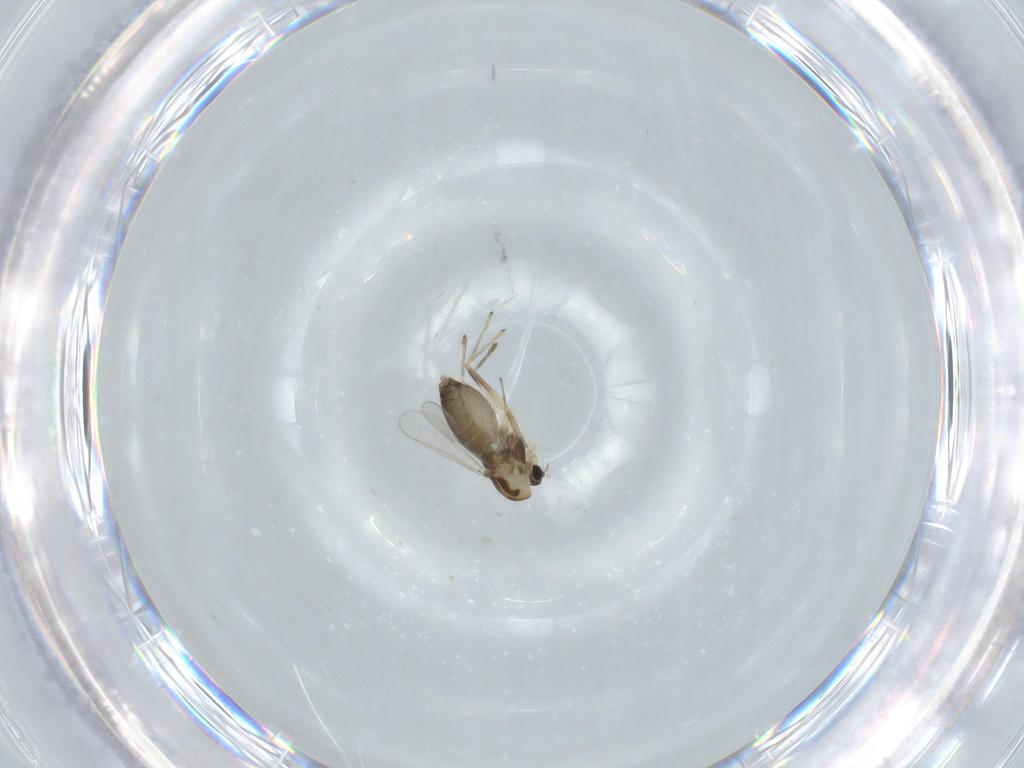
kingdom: Animalia
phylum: Arthropoda
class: Insecta
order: Diptera
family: Chironomidae
